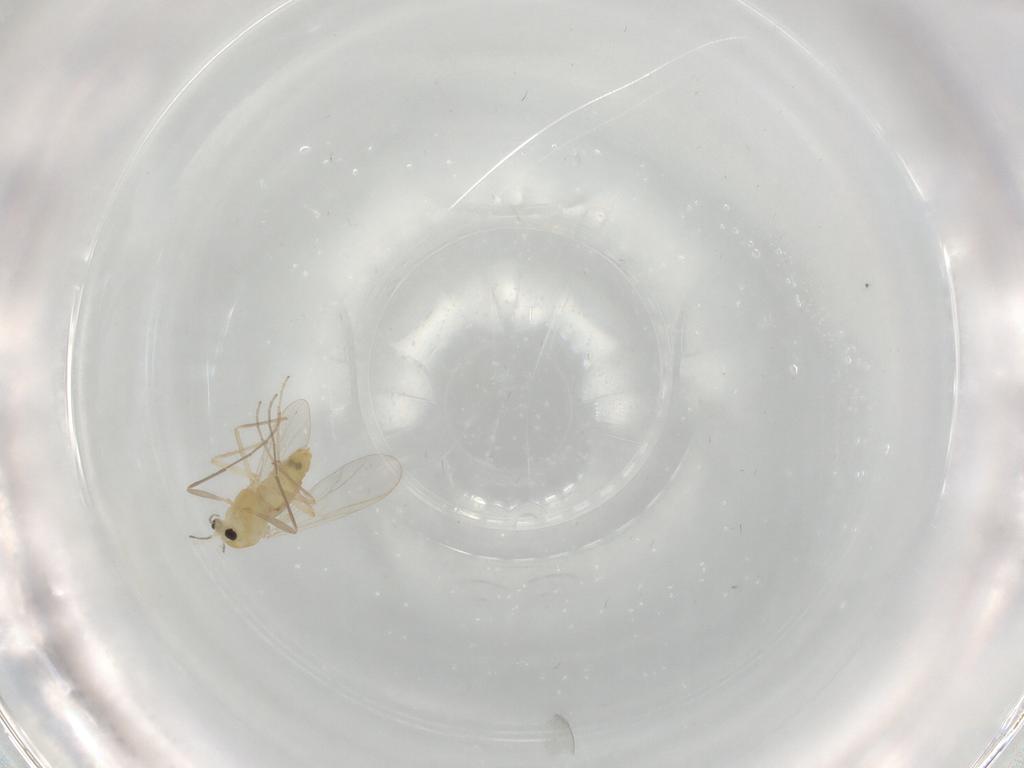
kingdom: Animalia
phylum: Arthropoda
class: Insecta
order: Diptera
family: Chironomidae
